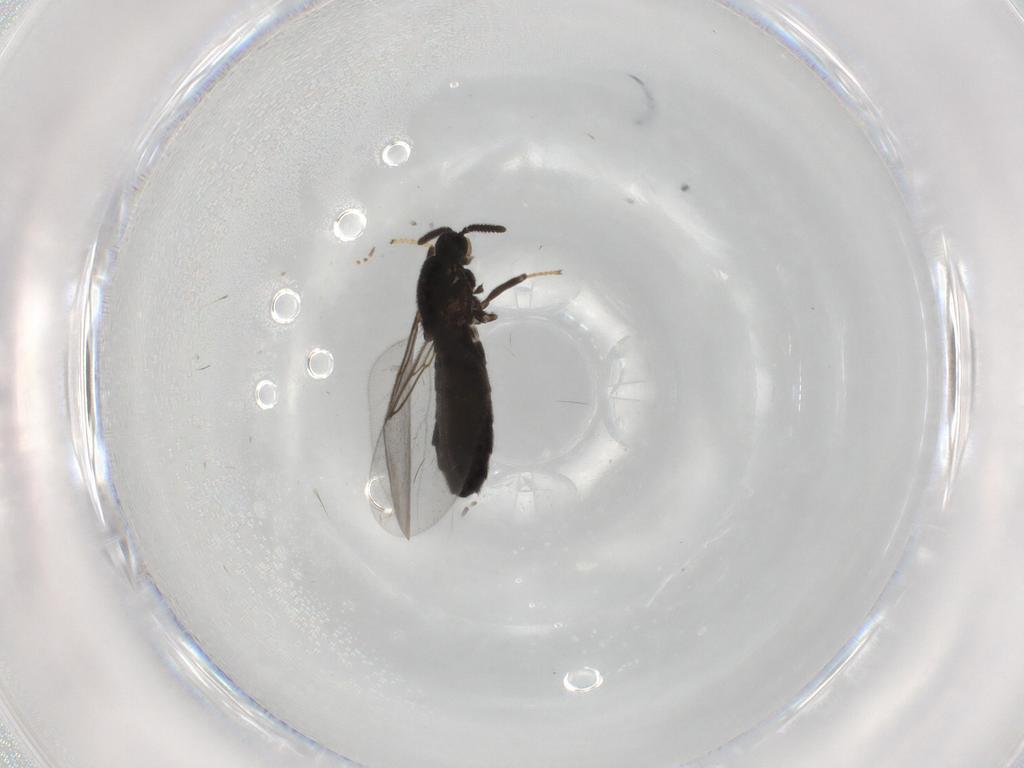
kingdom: Animalia
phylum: Arthropoda
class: Insecta
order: Diptera
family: Scatopsidae
